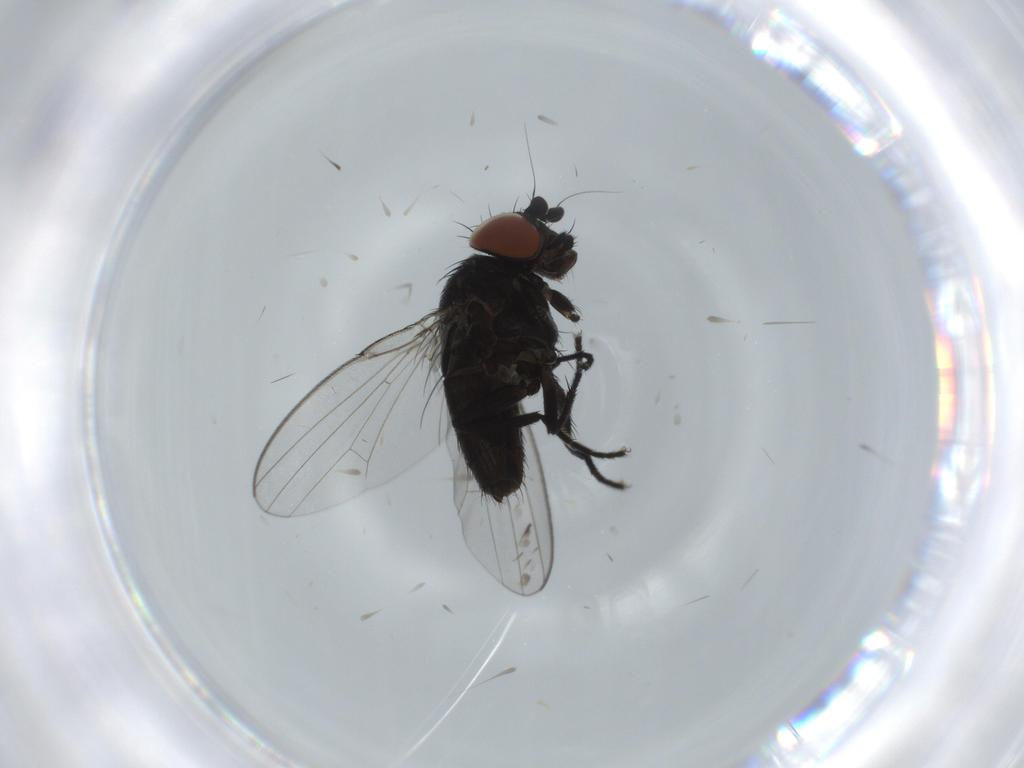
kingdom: Animalia
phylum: Arthropoda
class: Insecta
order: Diptera
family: Milichiidae
